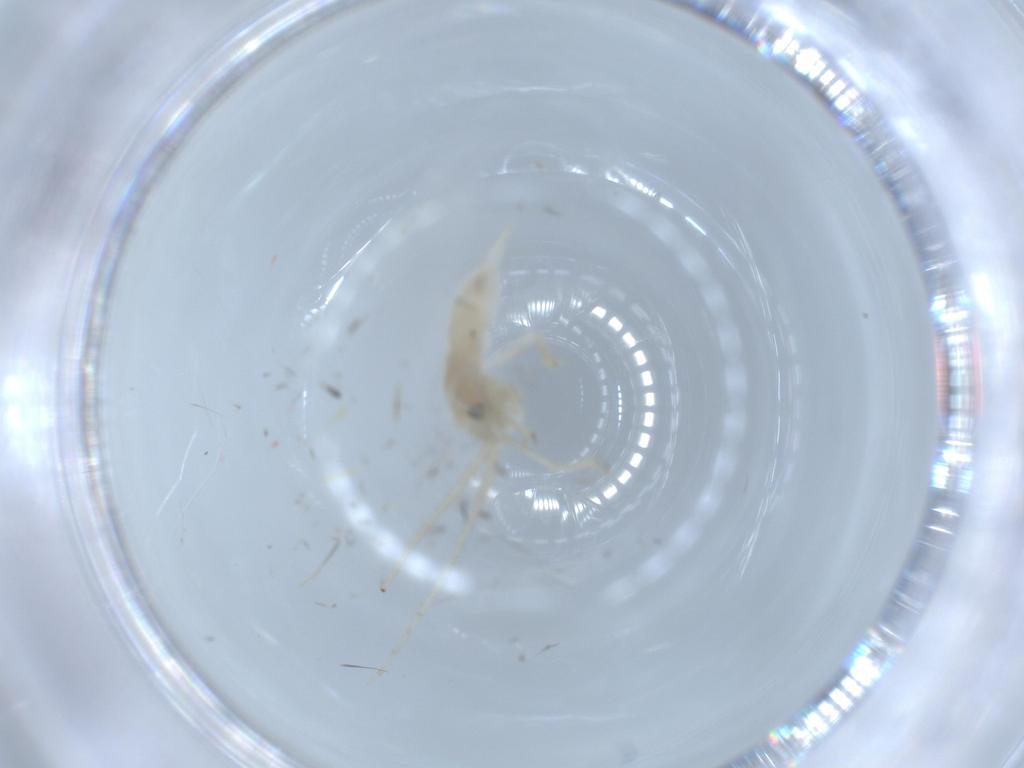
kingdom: Animalia
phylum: Arthropoda
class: Insecta
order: Orthoptera
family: Trigonidiidae
